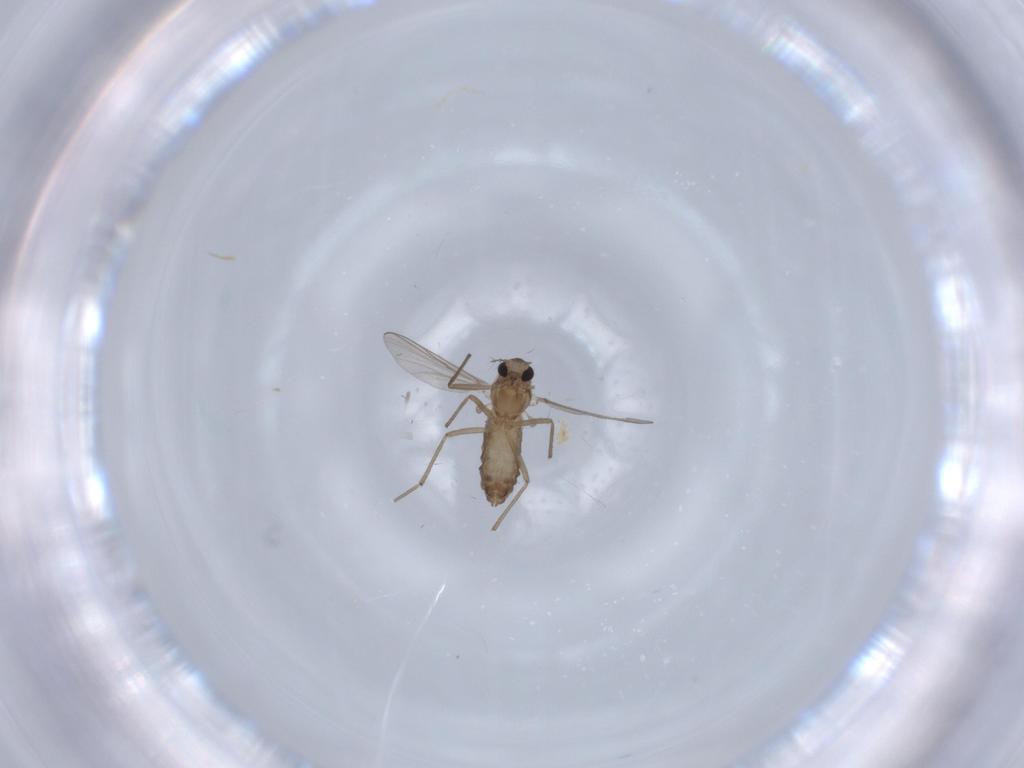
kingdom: Animalia
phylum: Arthropoda
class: Insecta
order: Diptera
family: Chironomidae
